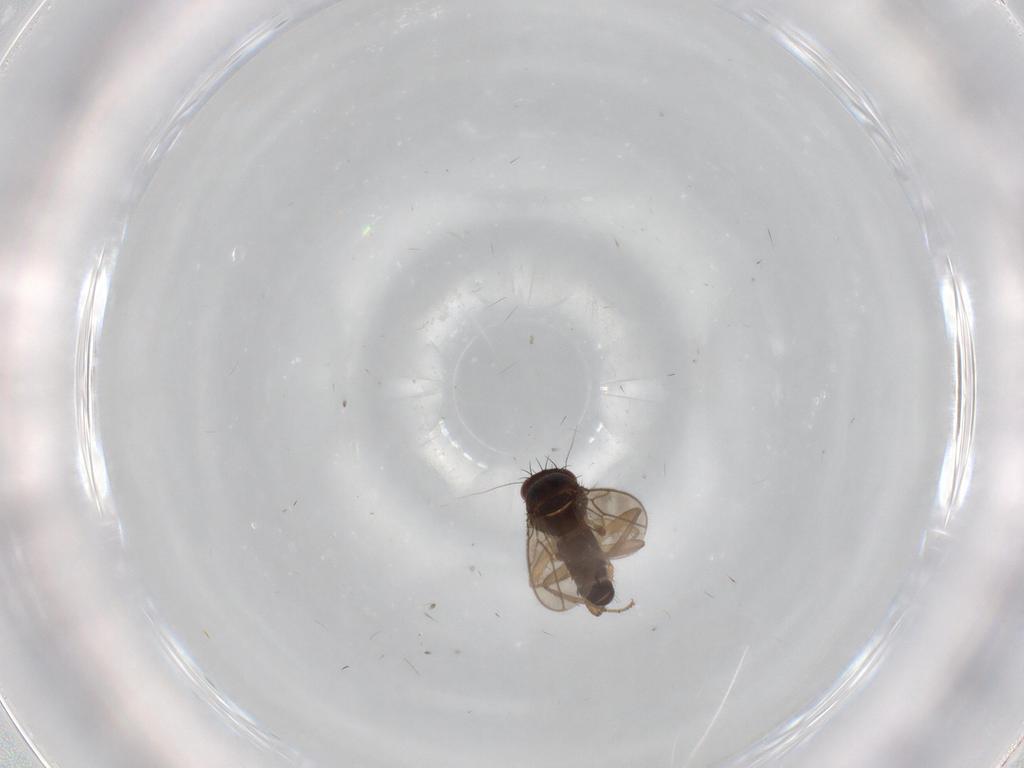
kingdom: Animalia
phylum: Arthropoda
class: Insecta
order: Diptera
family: Sphaeroceridae
